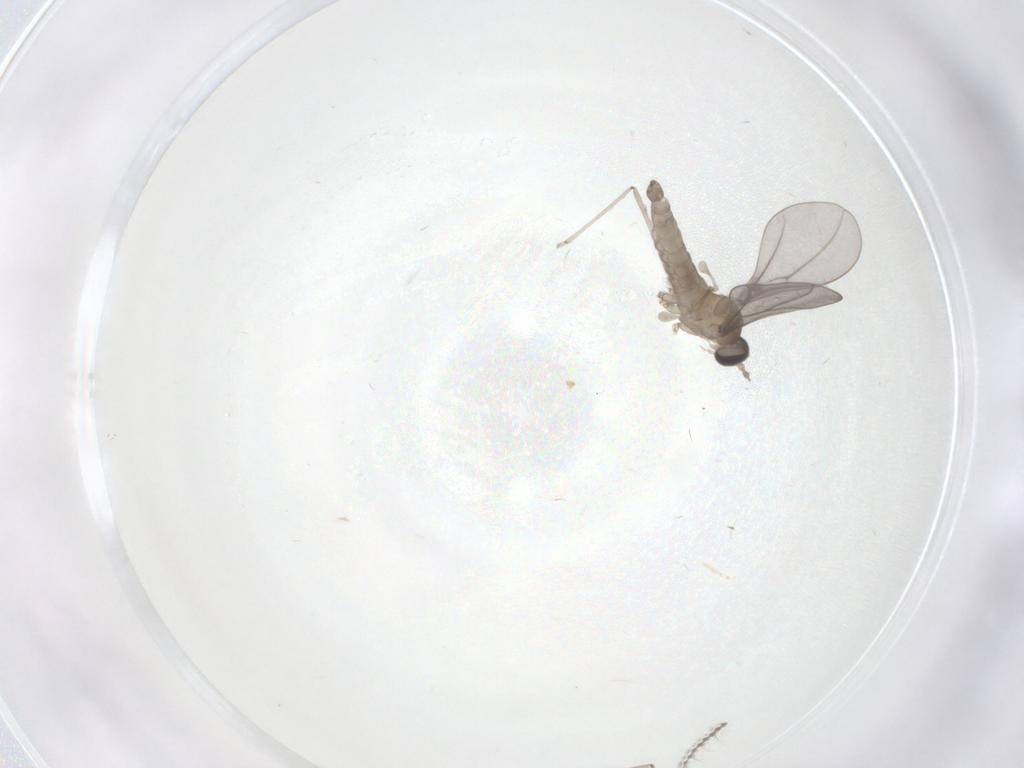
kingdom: Animalia
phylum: Arthropoda
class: Insecta
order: Diptera
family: Cecidomyiidae
